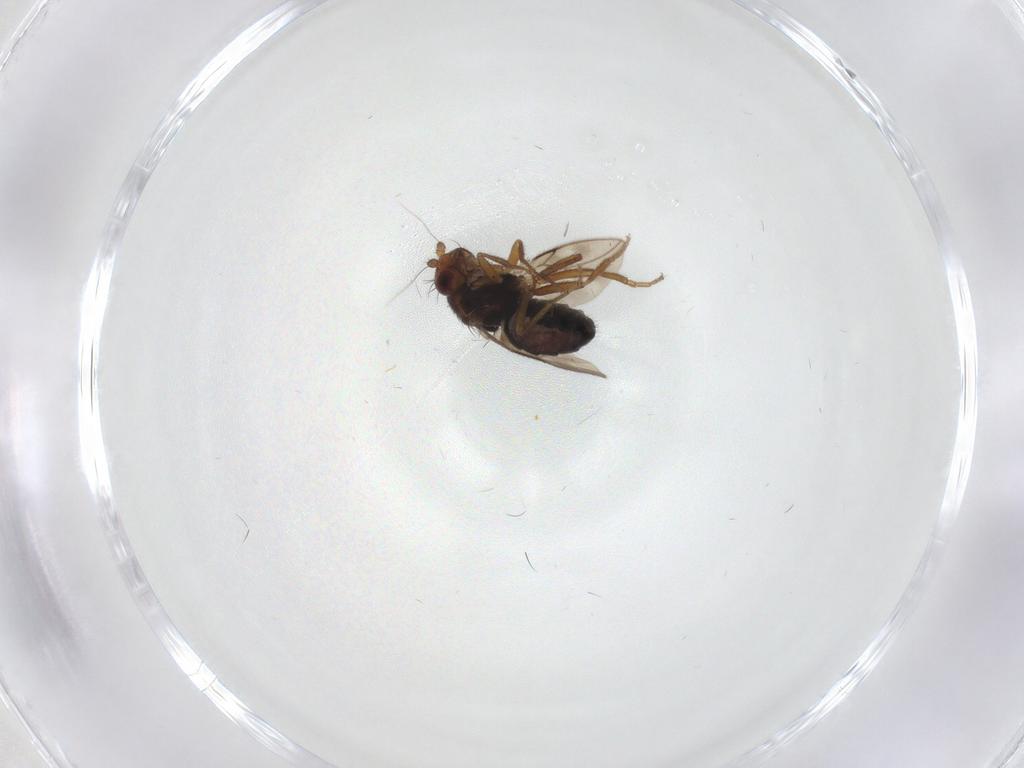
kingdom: Animalia
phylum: Arthropoda
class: Insecta
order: Diptera
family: Sphaeroceridae
